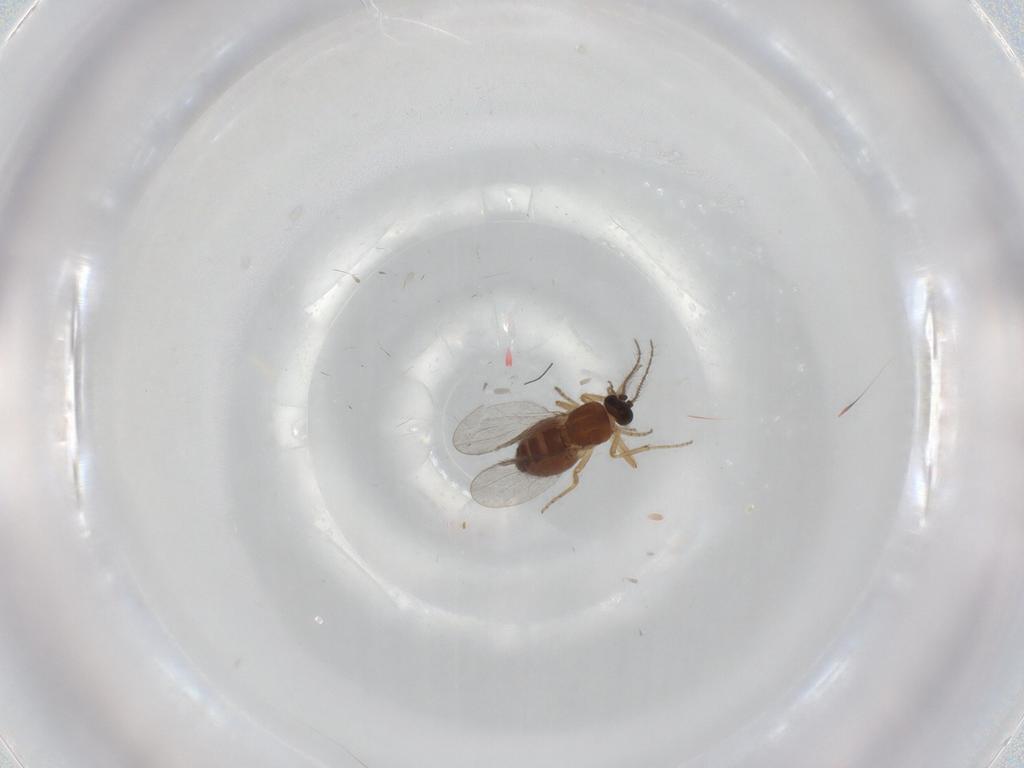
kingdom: Animalia
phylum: Arthropoda
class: Insecta
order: Diptera
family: Ceratopogonidae
